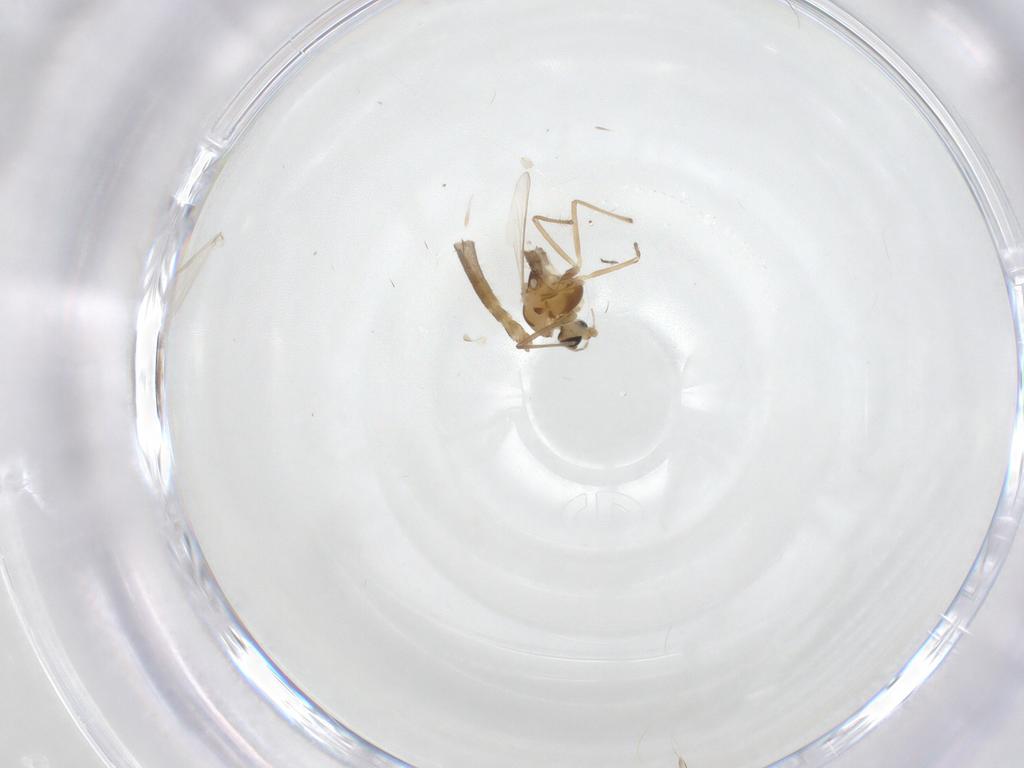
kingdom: Animalia
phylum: Arthropoda
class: Insecta
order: Diptera
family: Chironomidae
